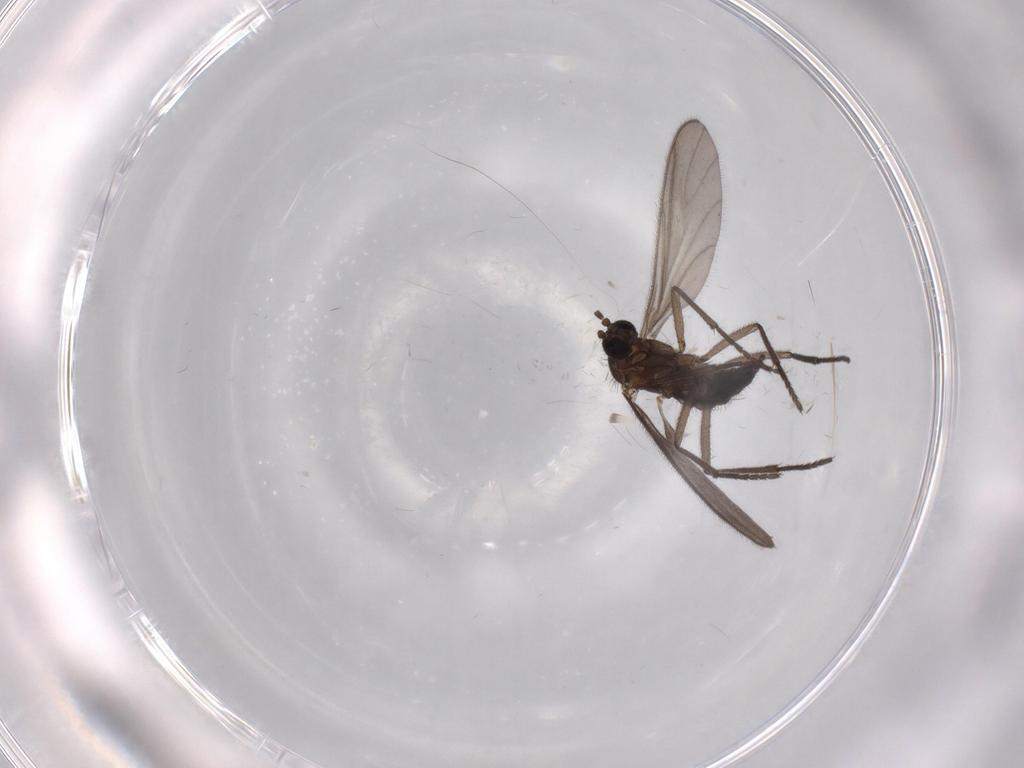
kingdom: Animalia
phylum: Arthropoda
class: Insecta
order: Diptera
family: Sciaridae
